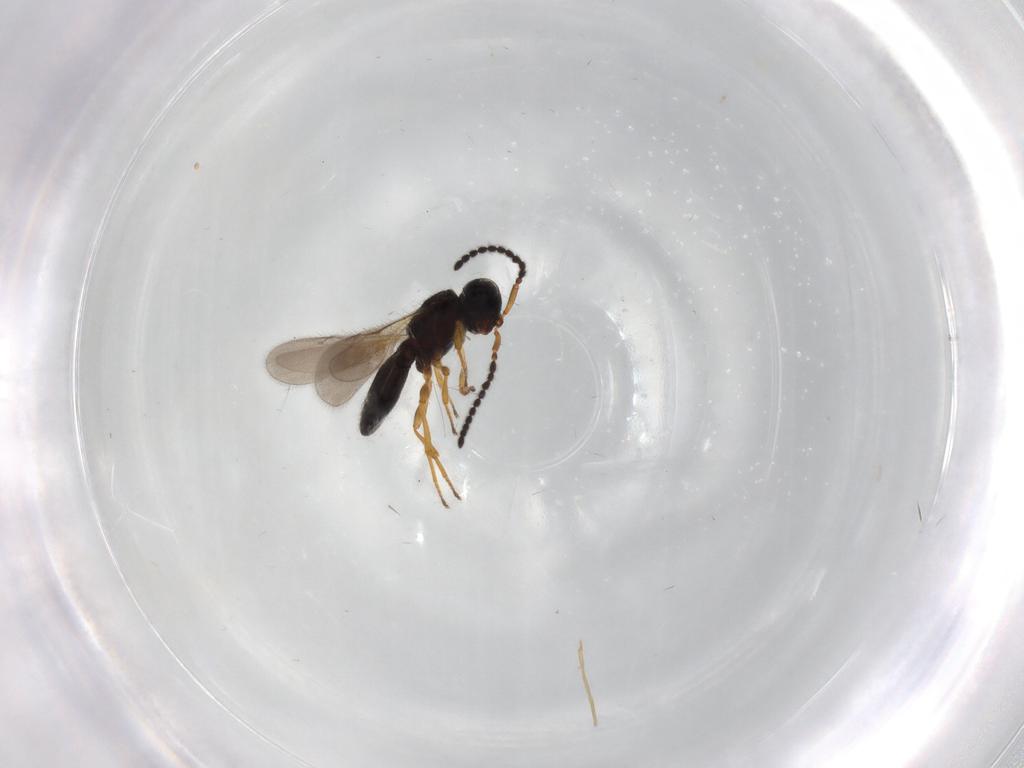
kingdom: Animalia
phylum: Arthropoda
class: Insecta
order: Hymenoptera
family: Scelionidae
